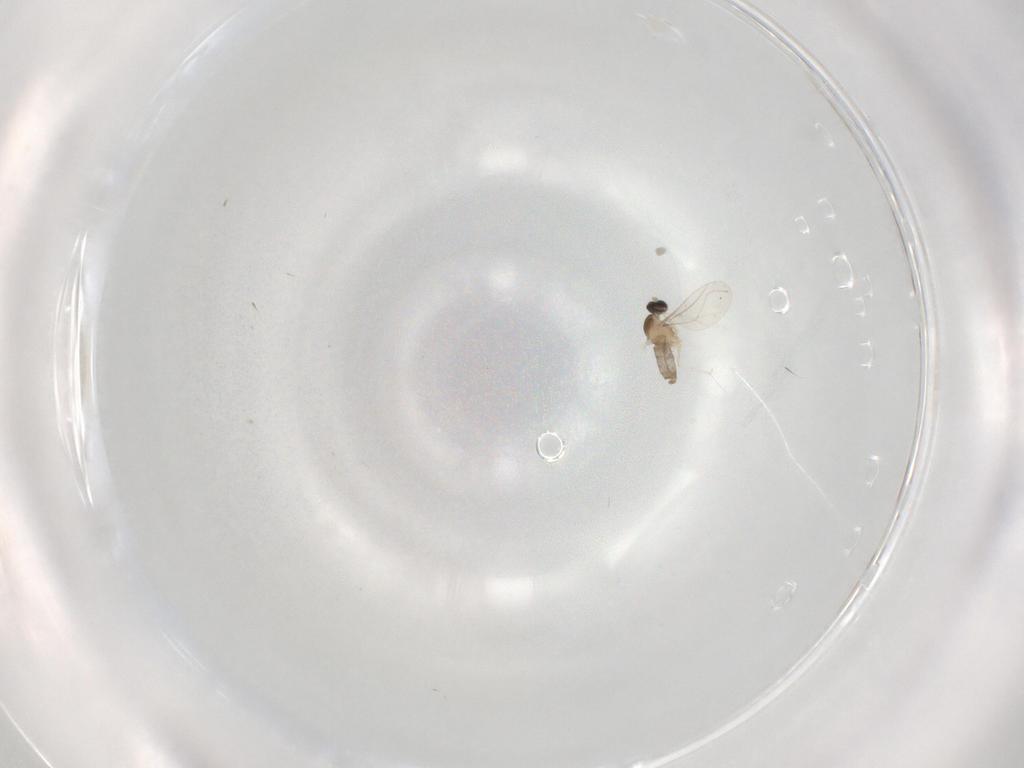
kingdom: Animalia
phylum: Arthropoda
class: Insecta
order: Diptera
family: Cecidomyiidae
